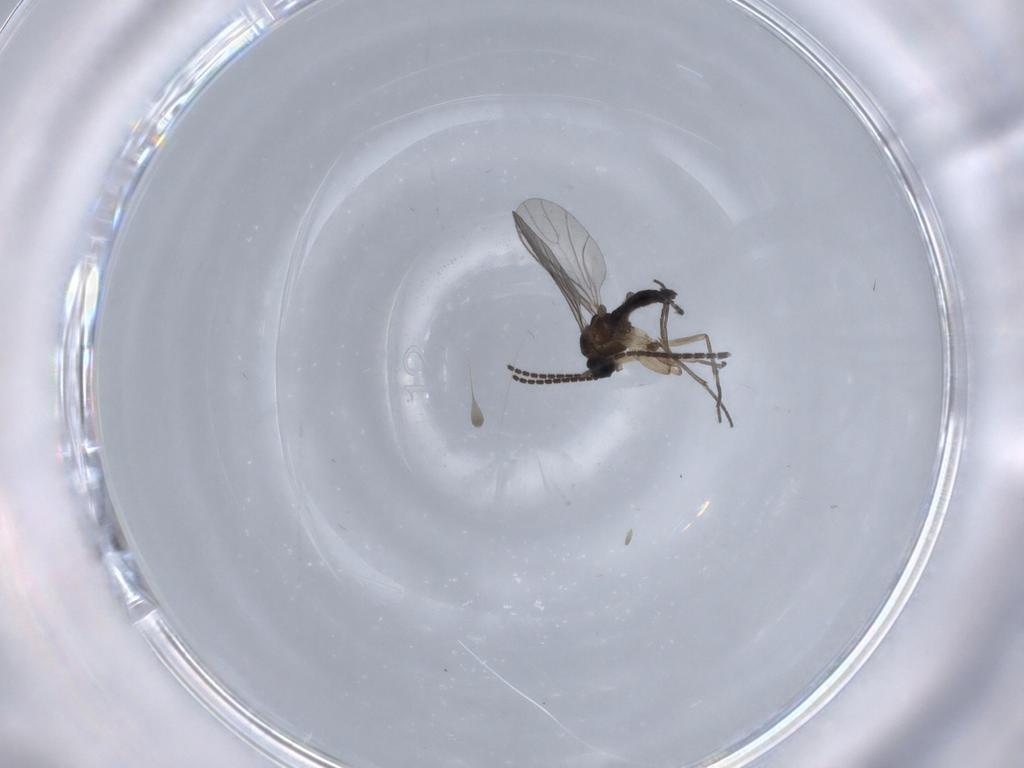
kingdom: Animalia
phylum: Arthropoda
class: Insecta
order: Diptera
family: Sciaridae
